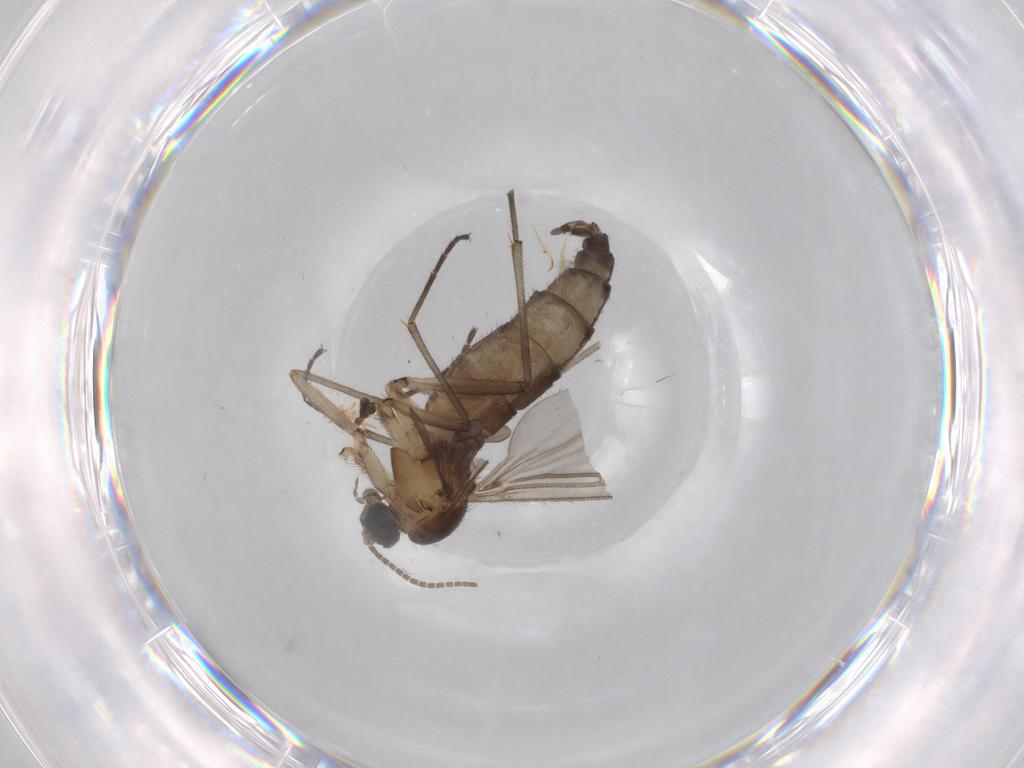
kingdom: Animalia
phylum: Arthropoda
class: Insecta
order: Diptera
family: Sciaridae
